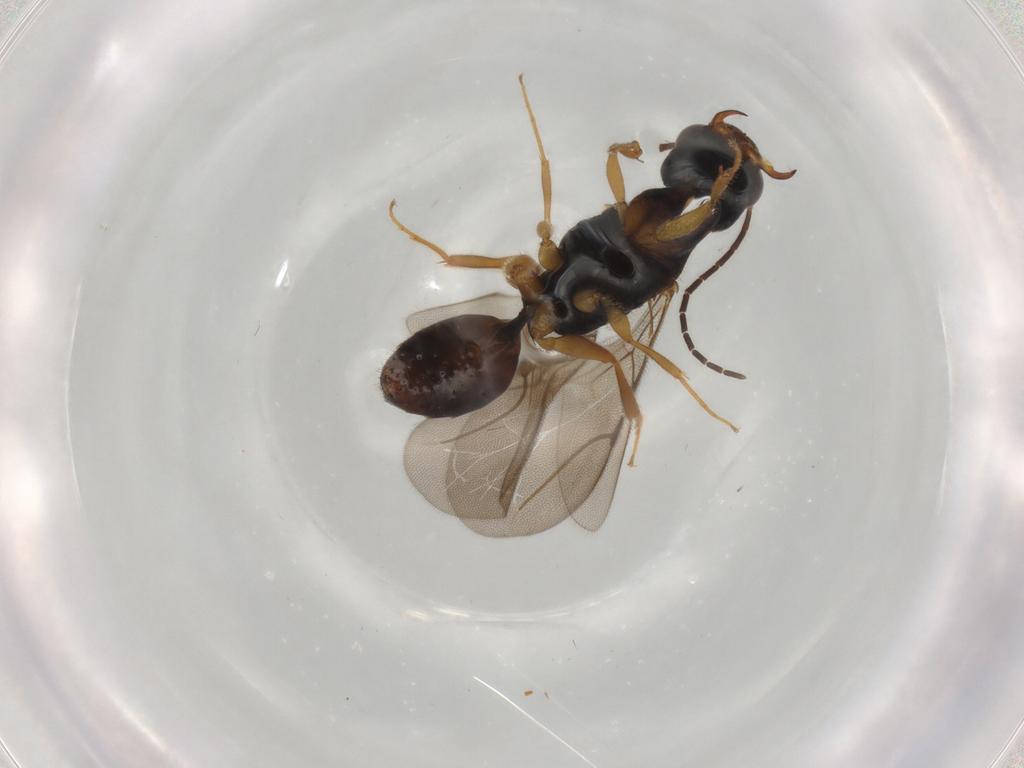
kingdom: Animalia
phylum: Arthropoda
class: Insecta
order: Hymenoptera
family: Bethylidae
